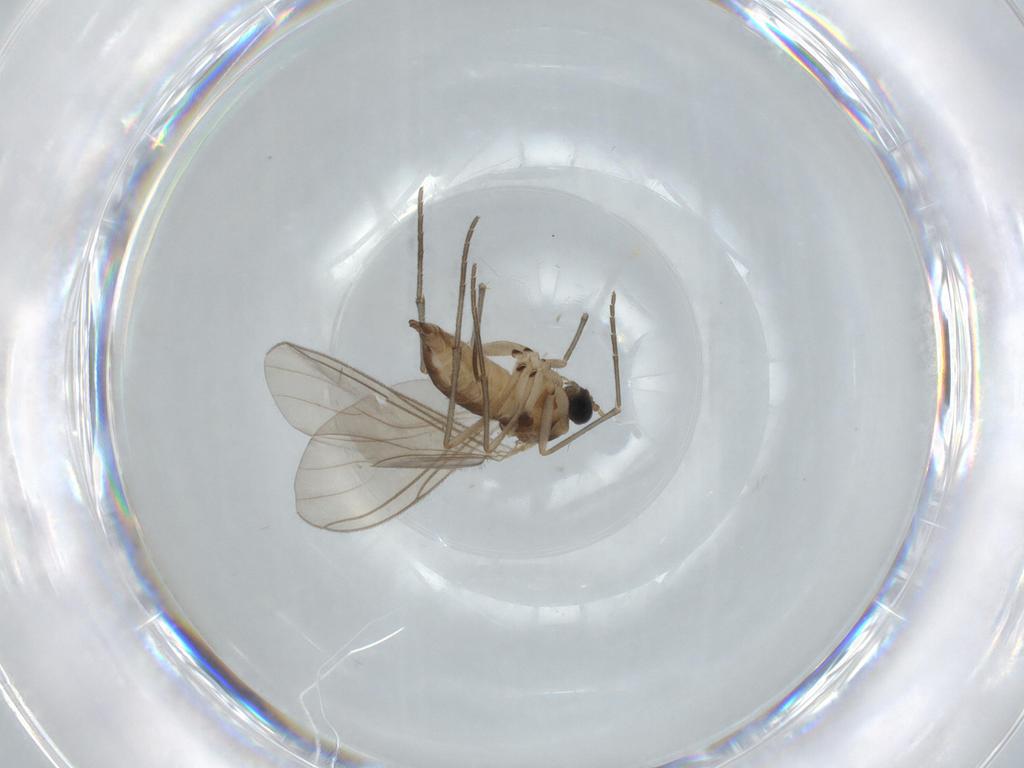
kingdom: Animalia
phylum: Arthropoda
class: Insecta
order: Diptera
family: Sciaridae
